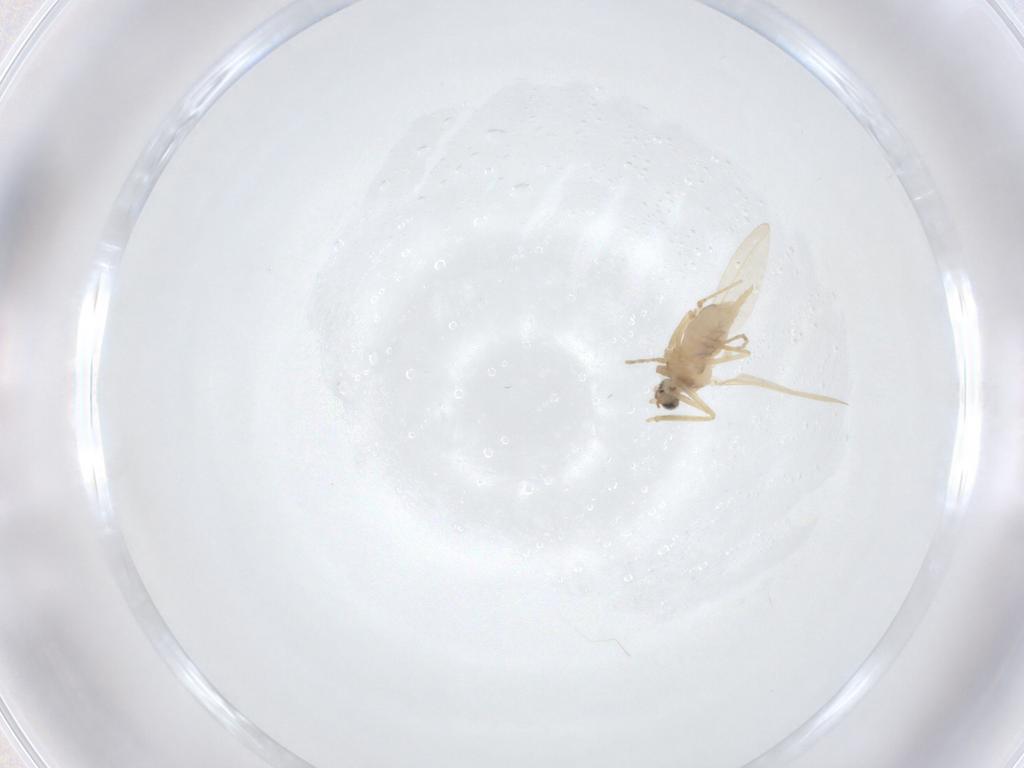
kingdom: Animalia
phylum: Arthropoda
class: Insecta
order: Diptera
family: Cecidomyiidae
